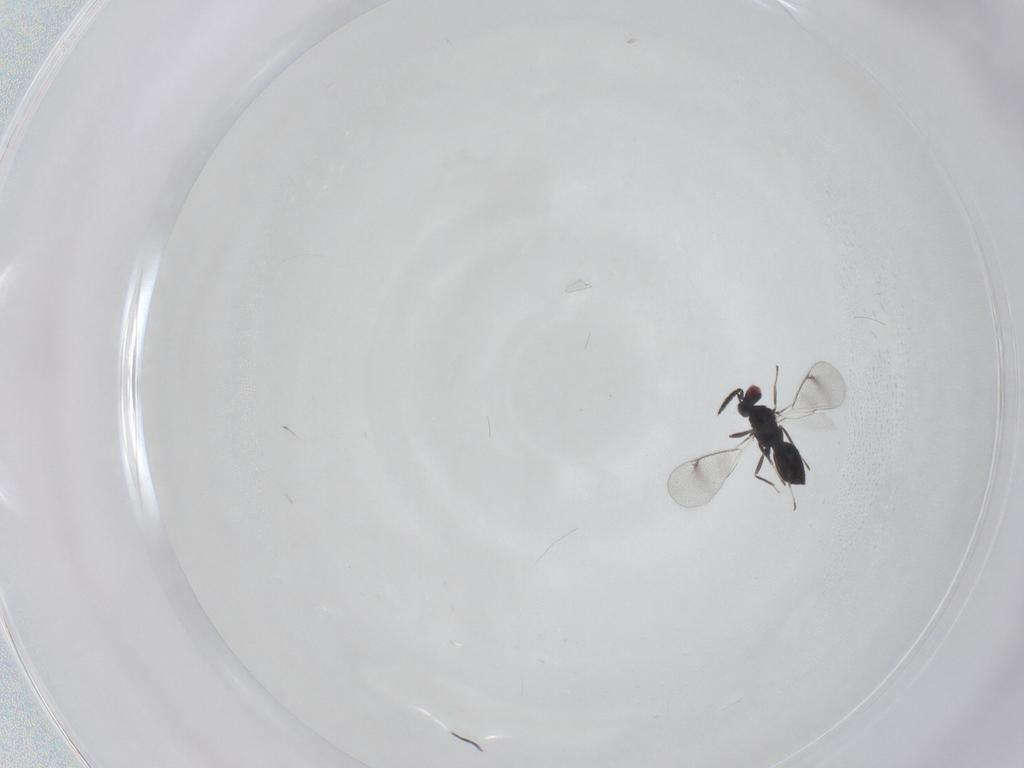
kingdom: Animalia
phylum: Arthropoda
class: Insecta
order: Hymenoptera
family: Eulophidae
